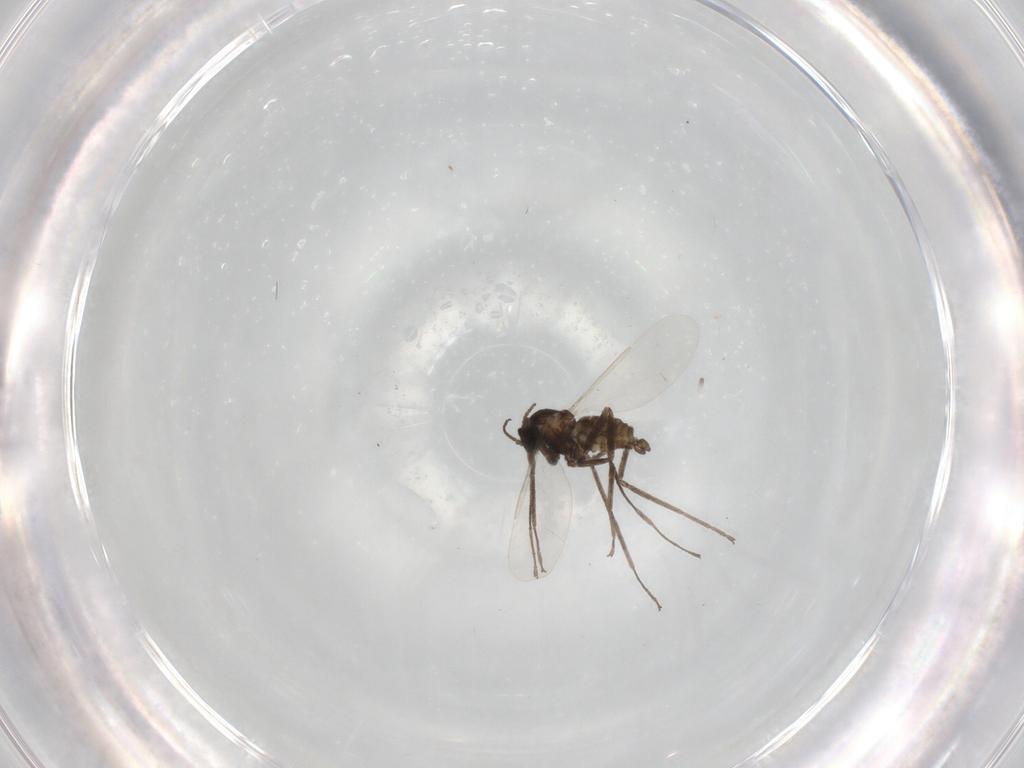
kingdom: Animalia
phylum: Arthropoda
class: Insecta
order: Diptera
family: Cecidomyiidae
